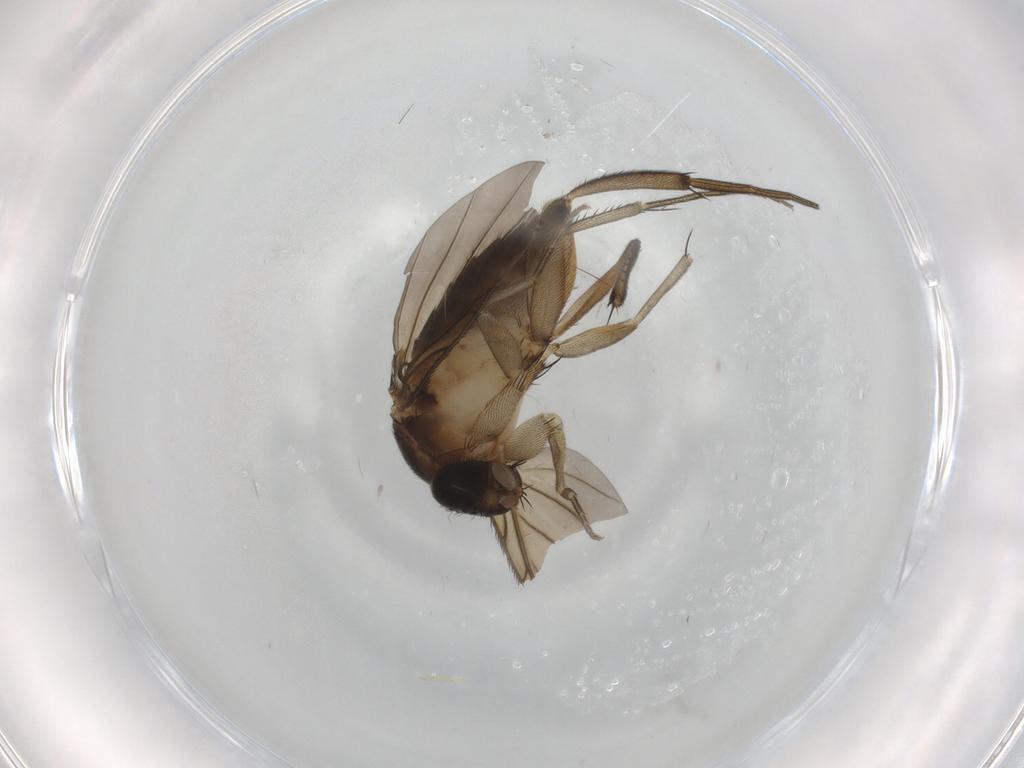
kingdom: Animalia
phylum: Arthropoda
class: Insecta
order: Diptera
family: Phoridae
